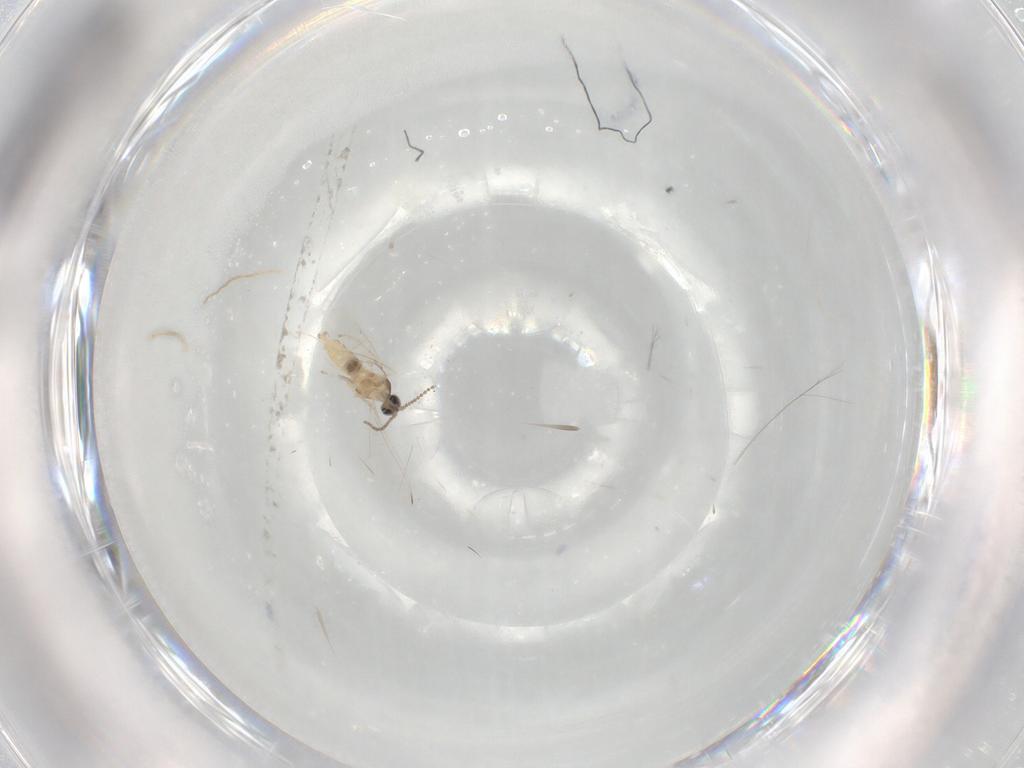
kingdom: Animalia
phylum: Arthropoda
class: Insecta
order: Diptera
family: Cecidomyiidae
